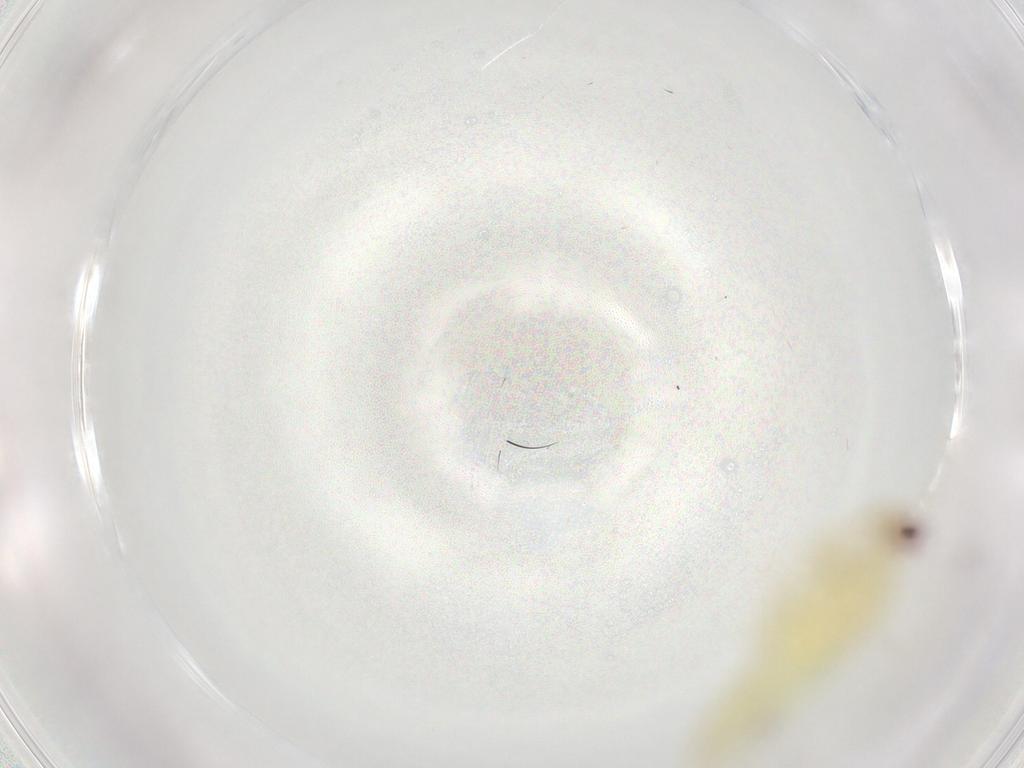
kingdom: Animalia
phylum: Arthropoda
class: Insecta
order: Hemiptera
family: Miridae
